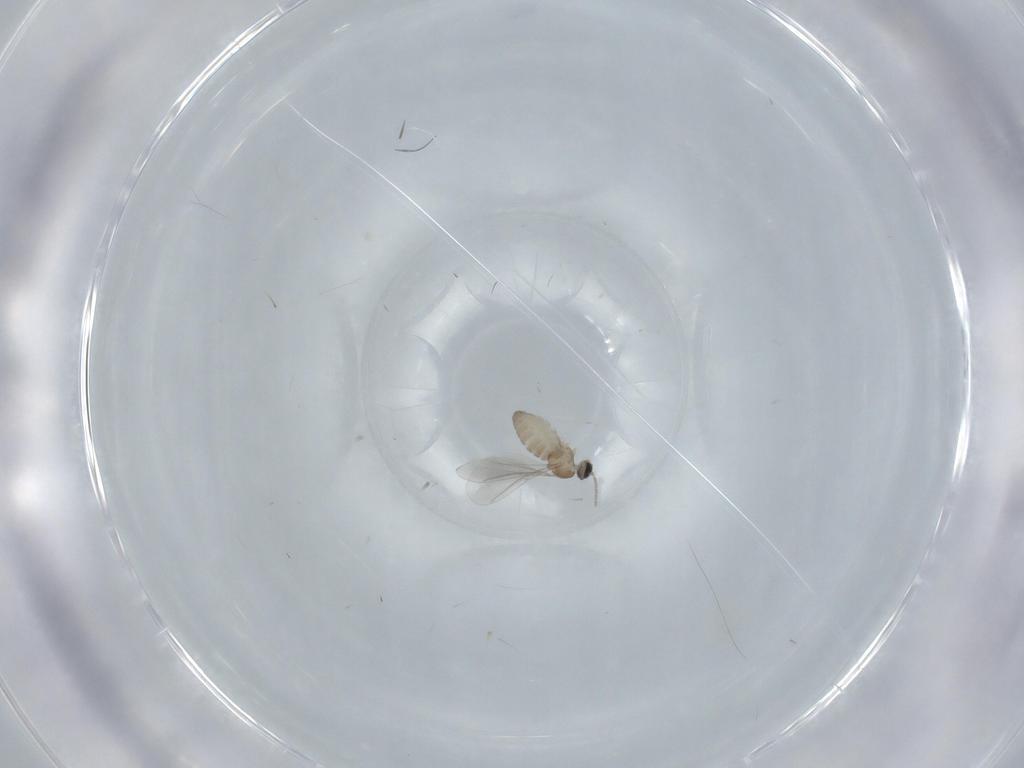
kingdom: Animalia
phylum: Arthropoda
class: Insecta
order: Diptera
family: Cecidomyiidae
